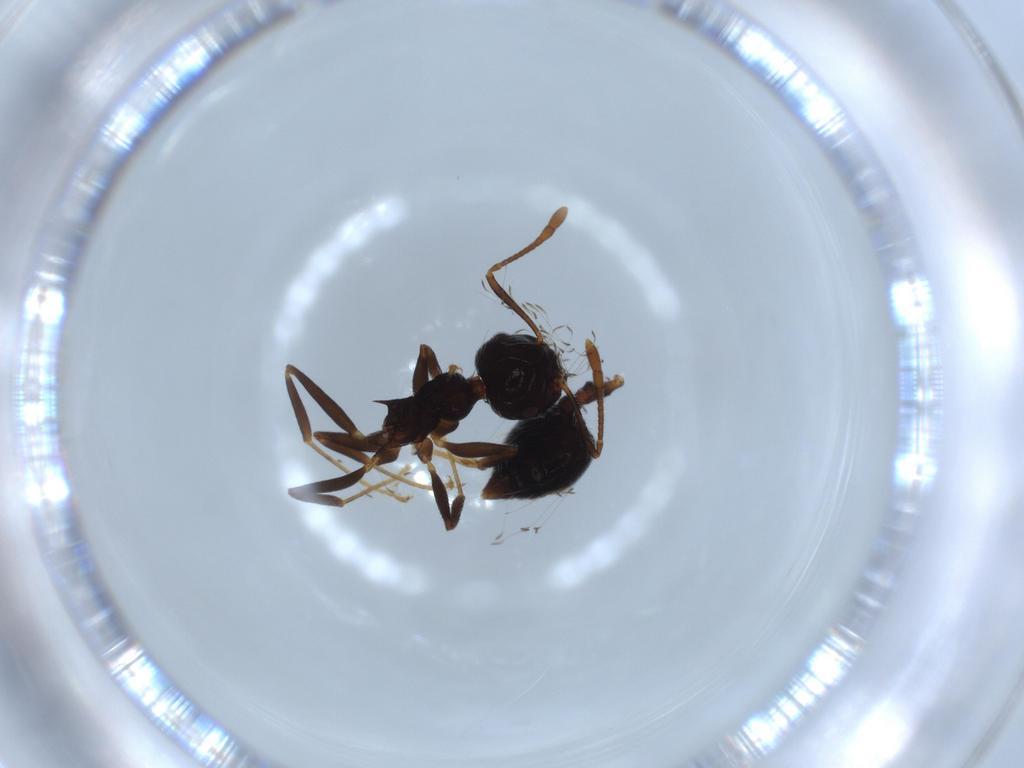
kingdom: Animalia
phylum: Arthropoda
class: Insecta
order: Hymenoptera
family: Formicidae
